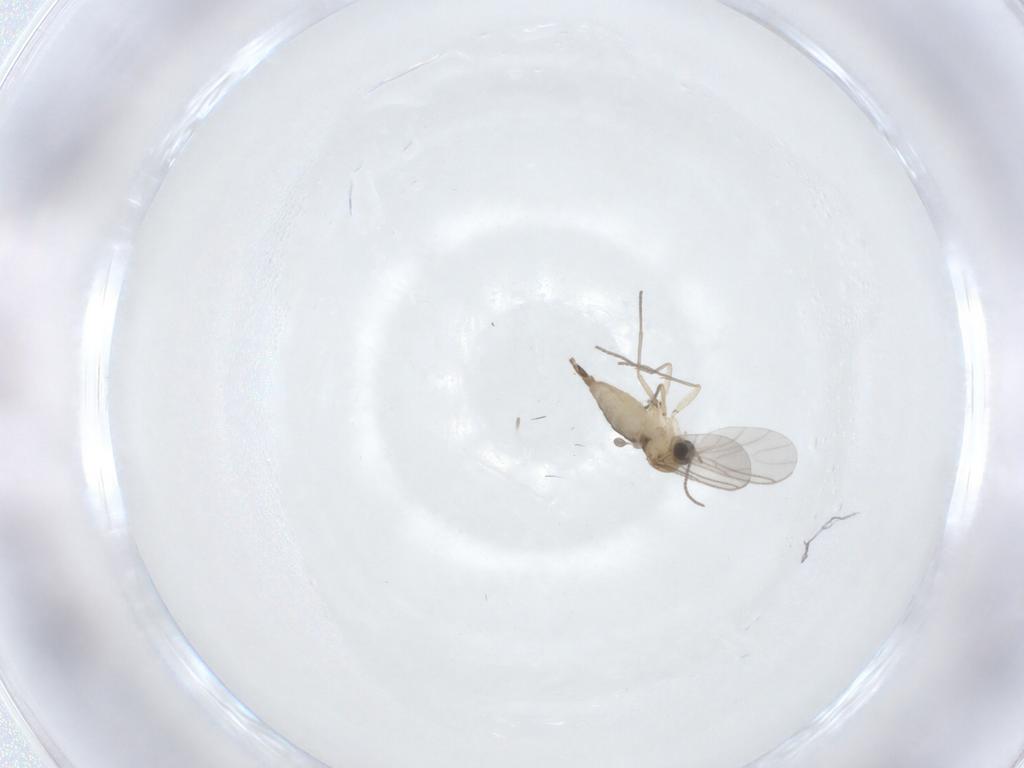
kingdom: Animalia
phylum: Arthropoda
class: Insecta
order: Diptera
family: Sciaridae
